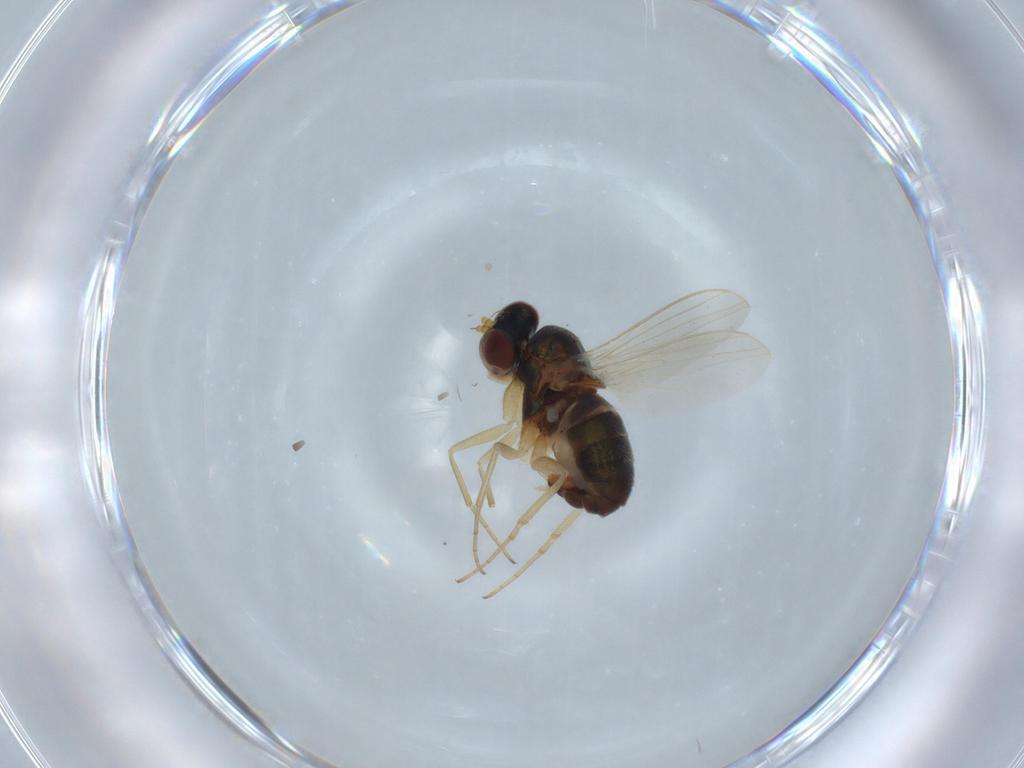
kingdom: Animalia
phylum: Arthropoda
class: Insecta
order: Diptera
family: Dolichopodidae
